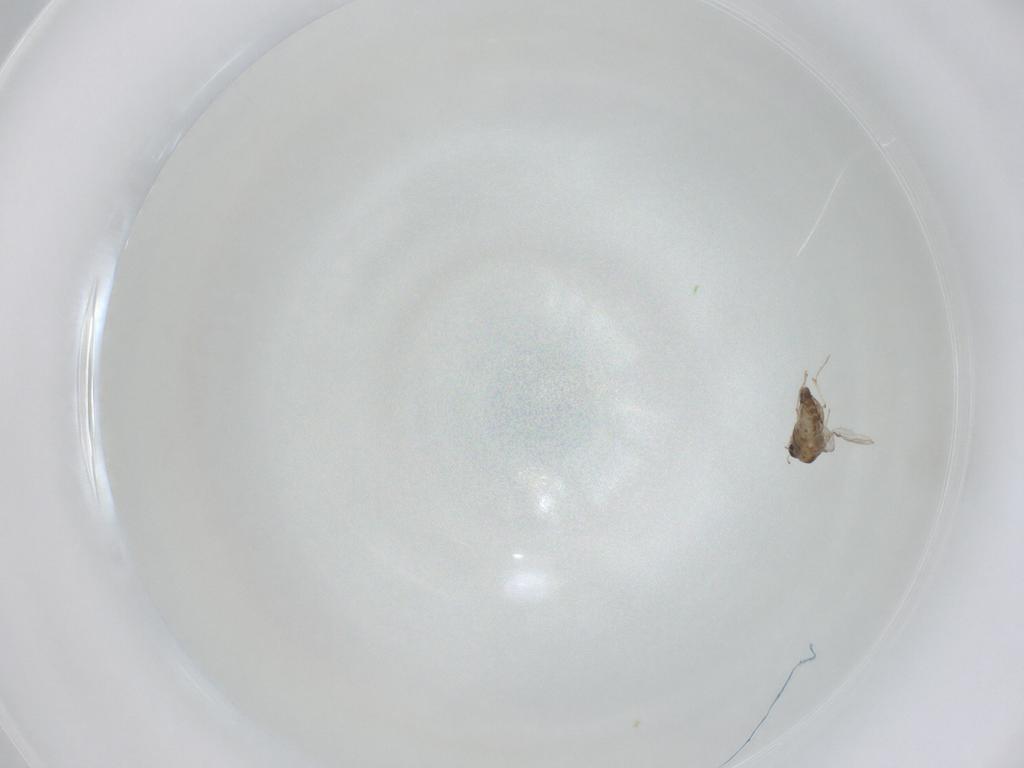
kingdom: Animalia
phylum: Arthropoda
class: Insecta
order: Diptera
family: Chironomidae
